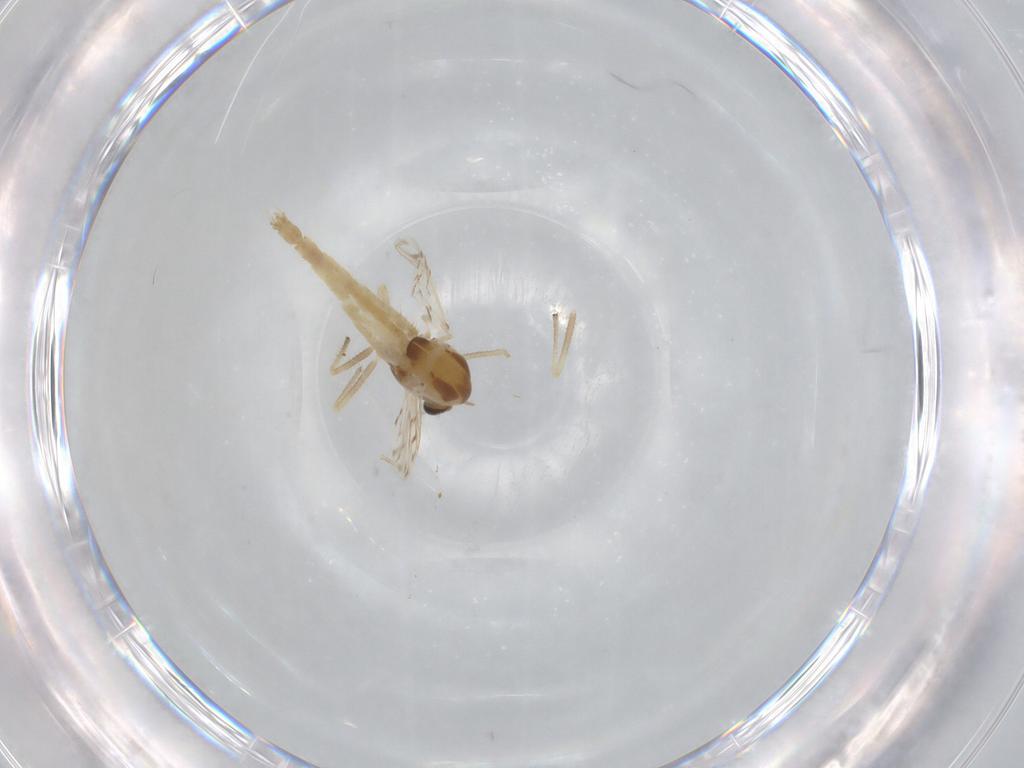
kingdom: Animalia
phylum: Arthropoda
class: Insecta
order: Diptera
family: Chironomidae
